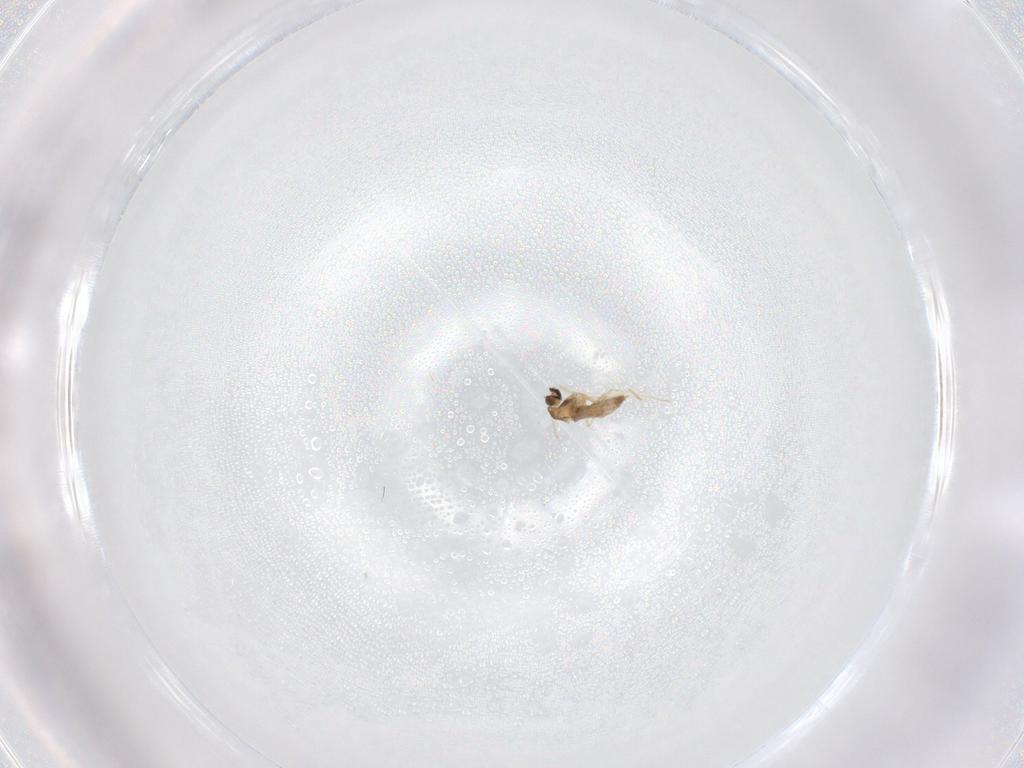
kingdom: Animalia
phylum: Arthropoda
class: Insecta
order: Diptera
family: Ceratopogonidae
